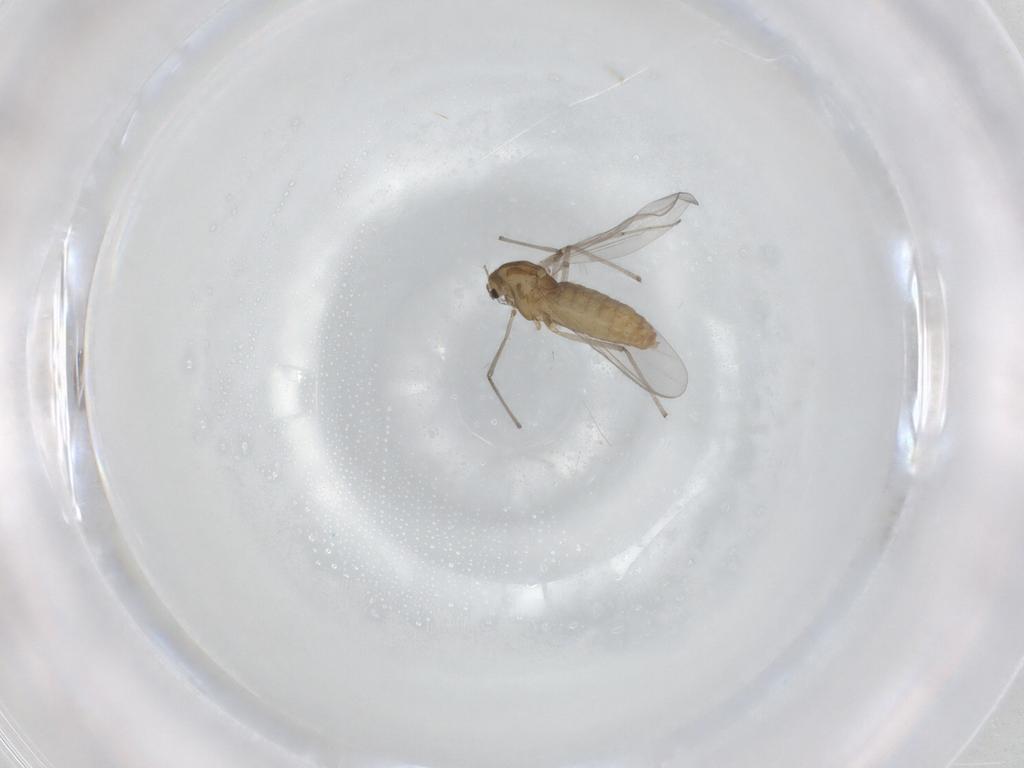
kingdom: Animalia
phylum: Arthropoda
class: Insecta
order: Diptera
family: Chironomidae
